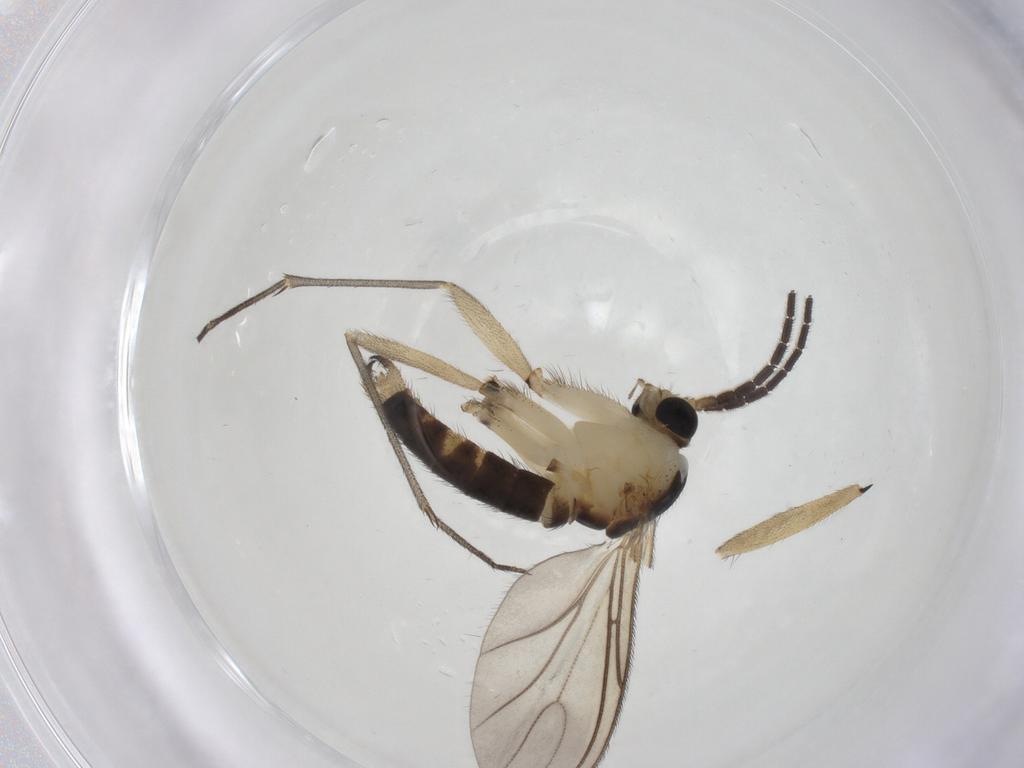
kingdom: Animalia
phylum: Arthropoda
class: Insecta
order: Diptera
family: Sciaridae
